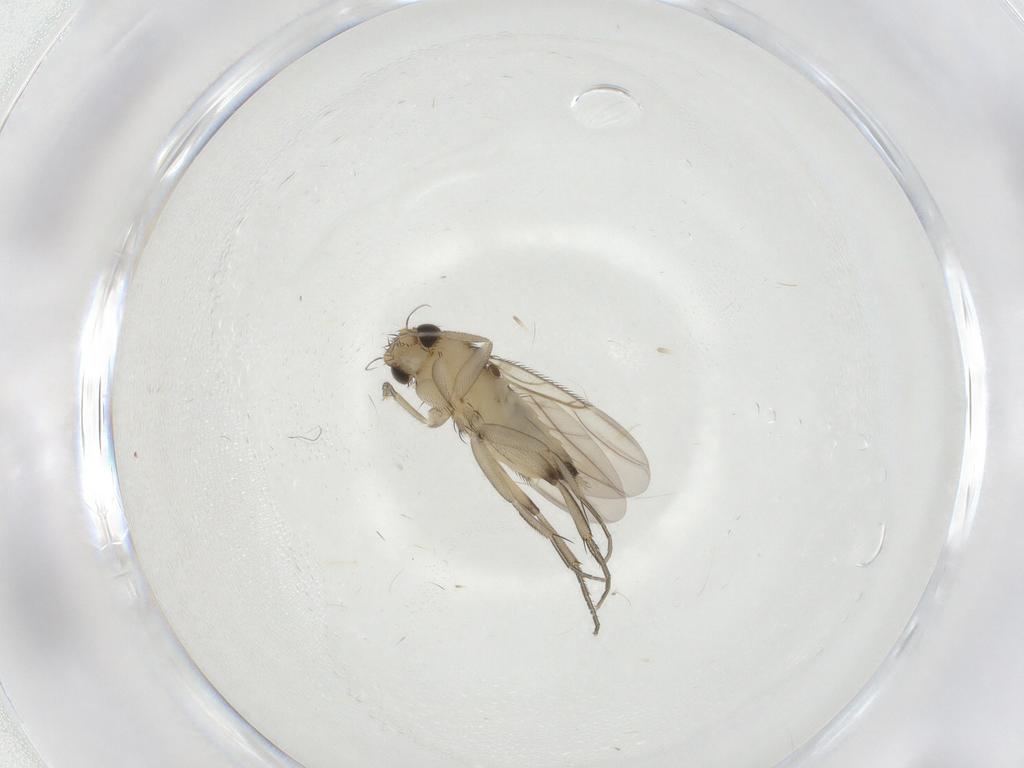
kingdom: Animalia
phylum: Arthropoda
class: Insecta
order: Diptera
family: Phoridae
